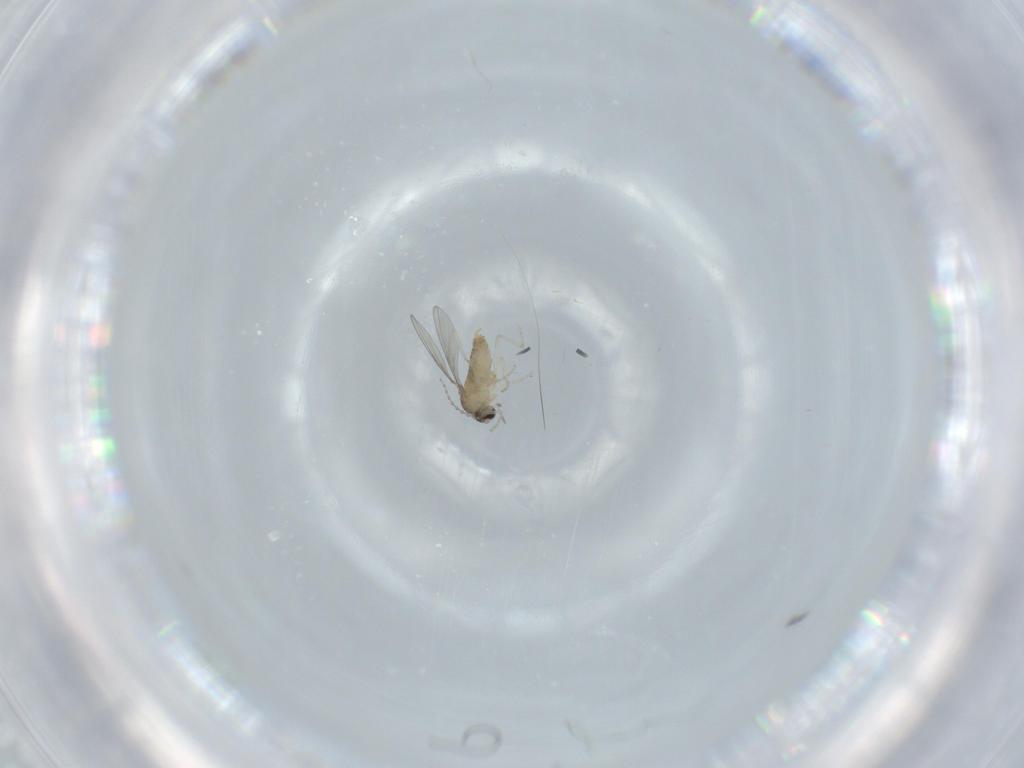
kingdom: Animalia
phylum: Arthropoda
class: Insecta
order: Diptera
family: Cecidomyiidae
